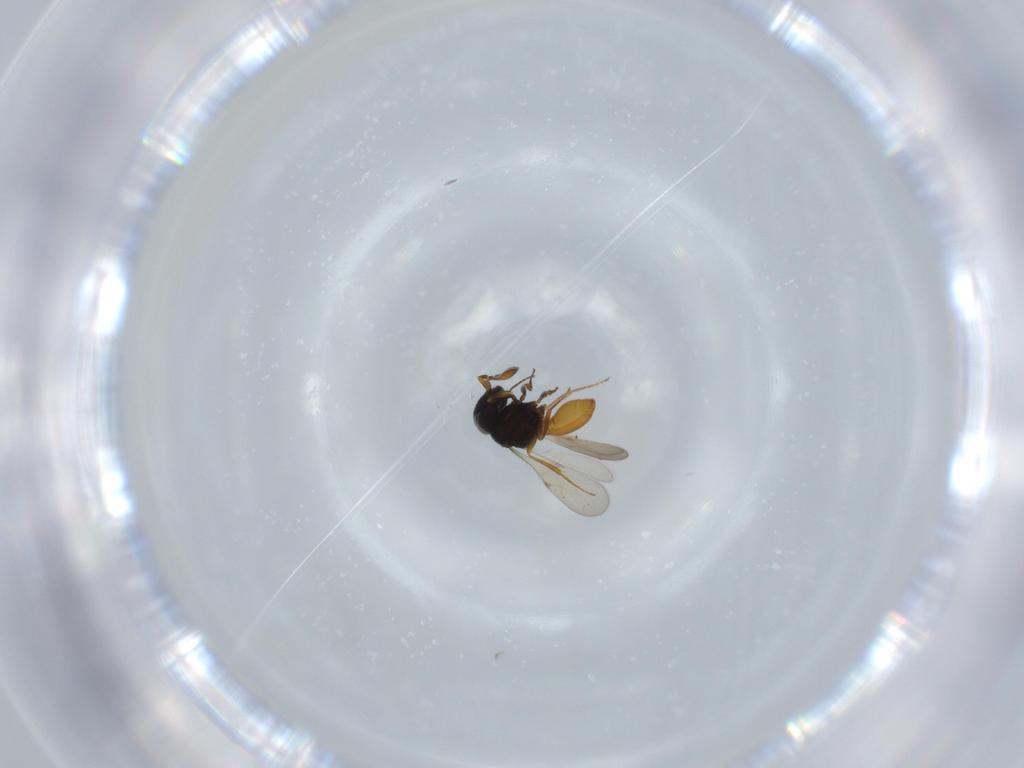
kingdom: Animalia
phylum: Arthropoda
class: Insecta
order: Hymenoptera
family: Scelionidae
